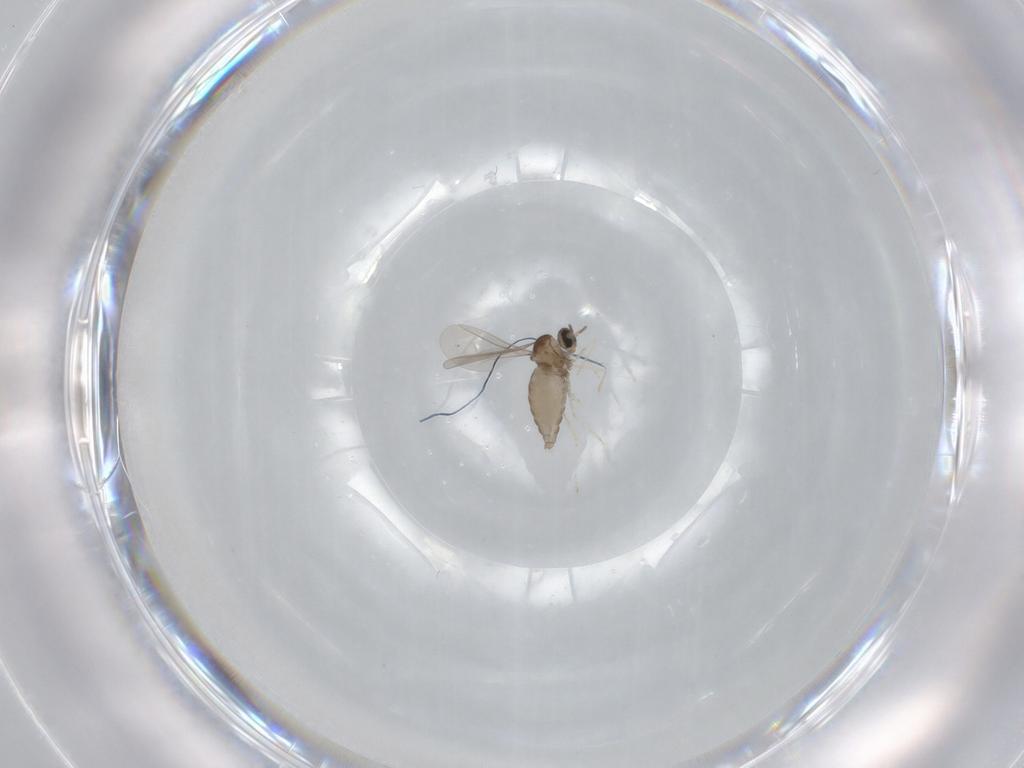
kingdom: Animalia
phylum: Arthropoda
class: Insecta
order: Diptera
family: Cecidomyiidae
